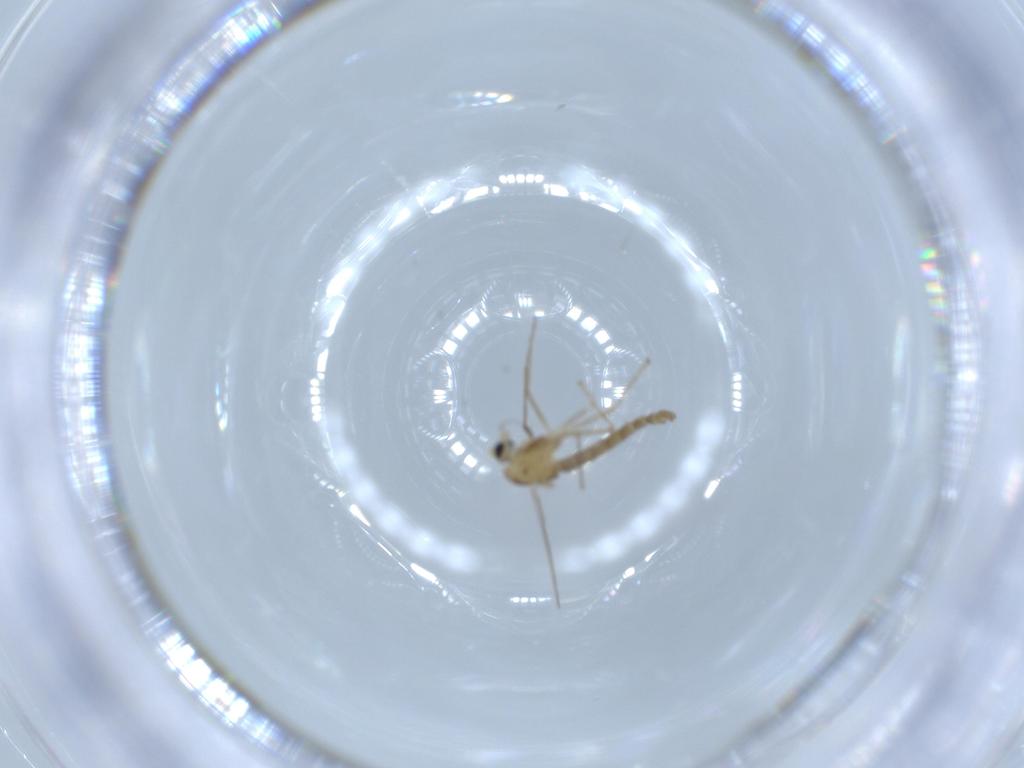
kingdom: Animalia
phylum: Arthropoda
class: Insecta
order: Diptera
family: Chironomidae
